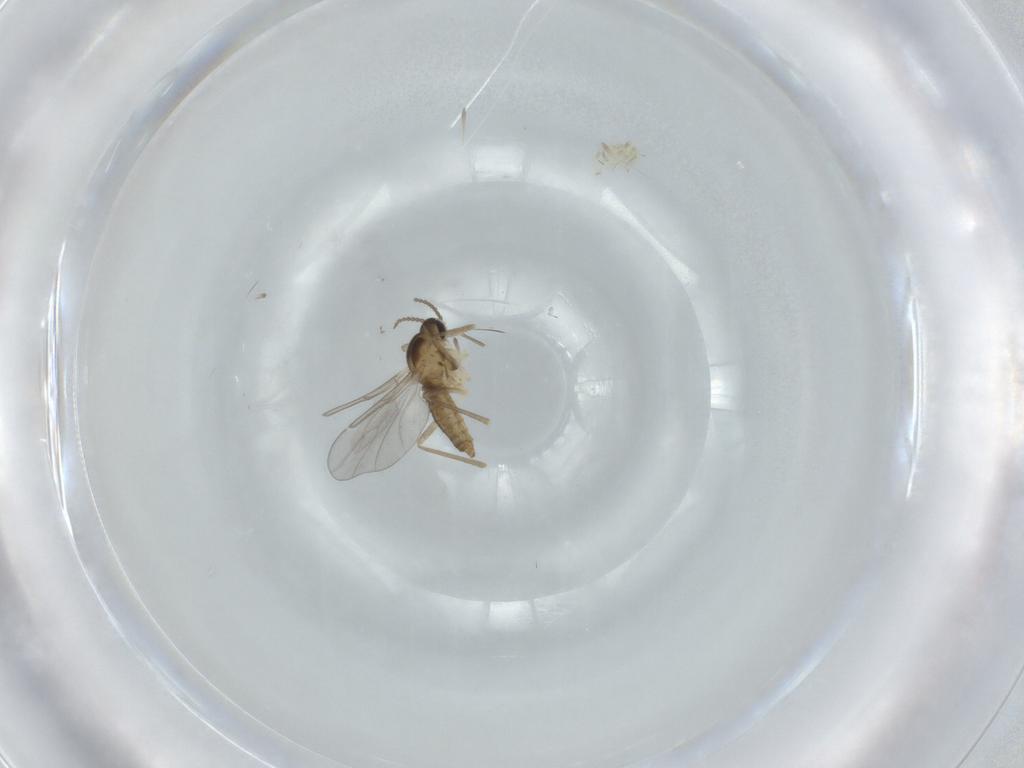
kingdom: Animalia
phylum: Arthropoda
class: Insecta
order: Diptera
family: Asilidae
